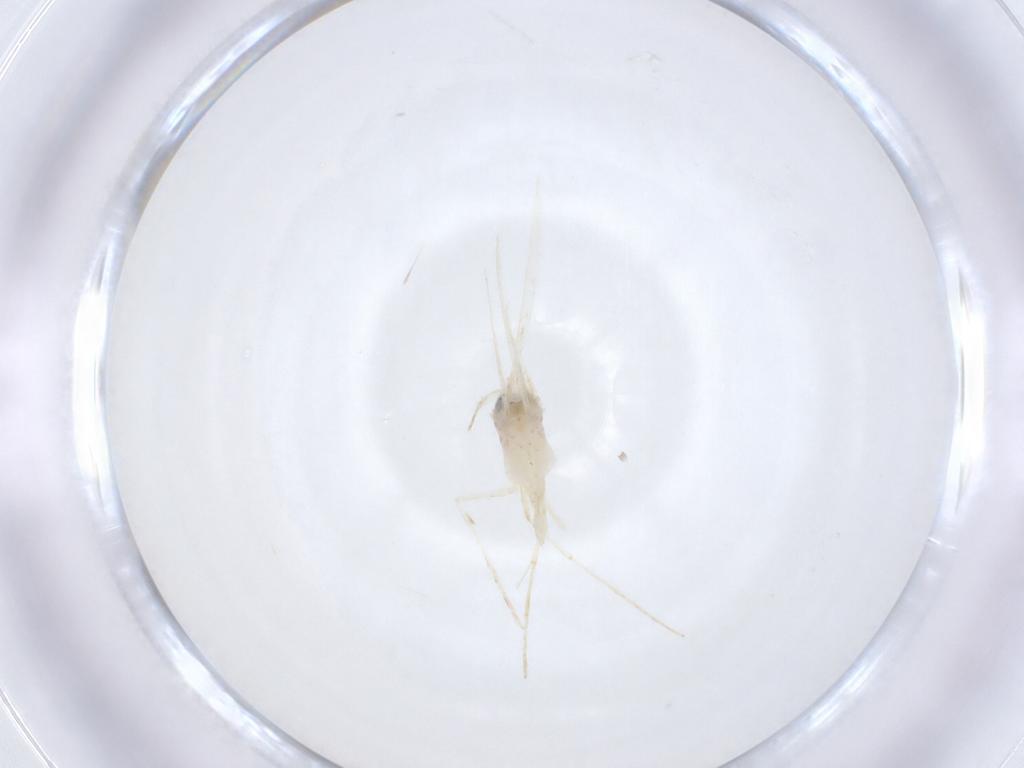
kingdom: Animalia
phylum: Arthropoda
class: Insecta
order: Lepidoptera
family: Saturniidae
